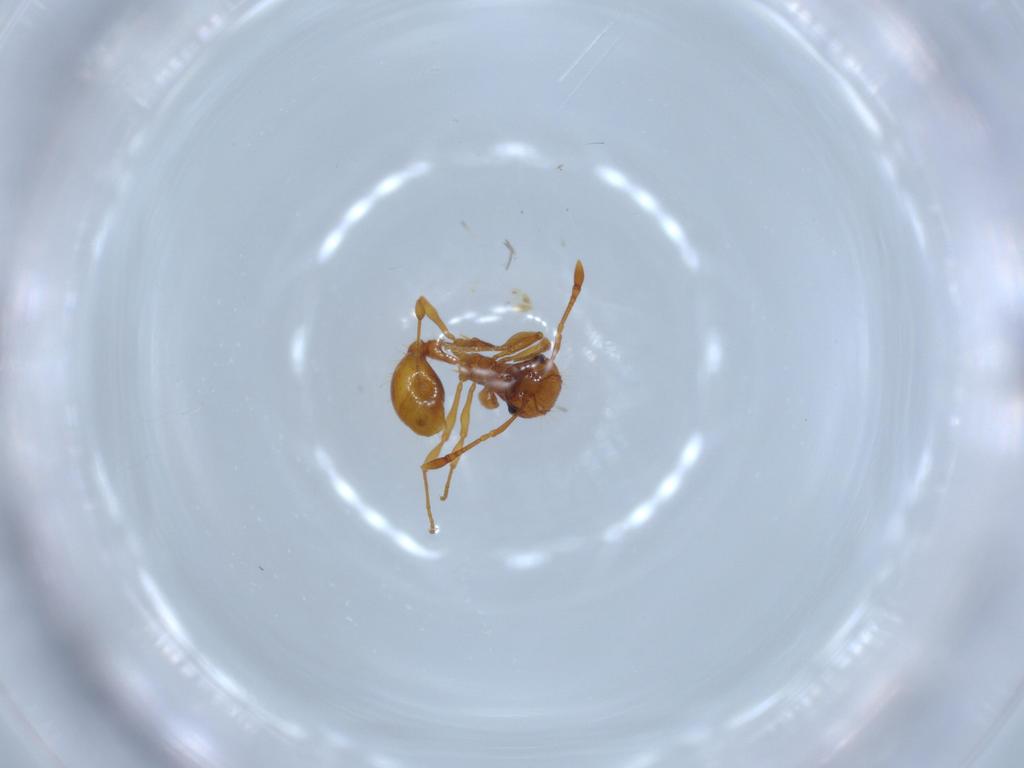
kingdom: Animalia
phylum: Arthropoda
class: Insecta
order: Hymenoptera
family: Formicidae
